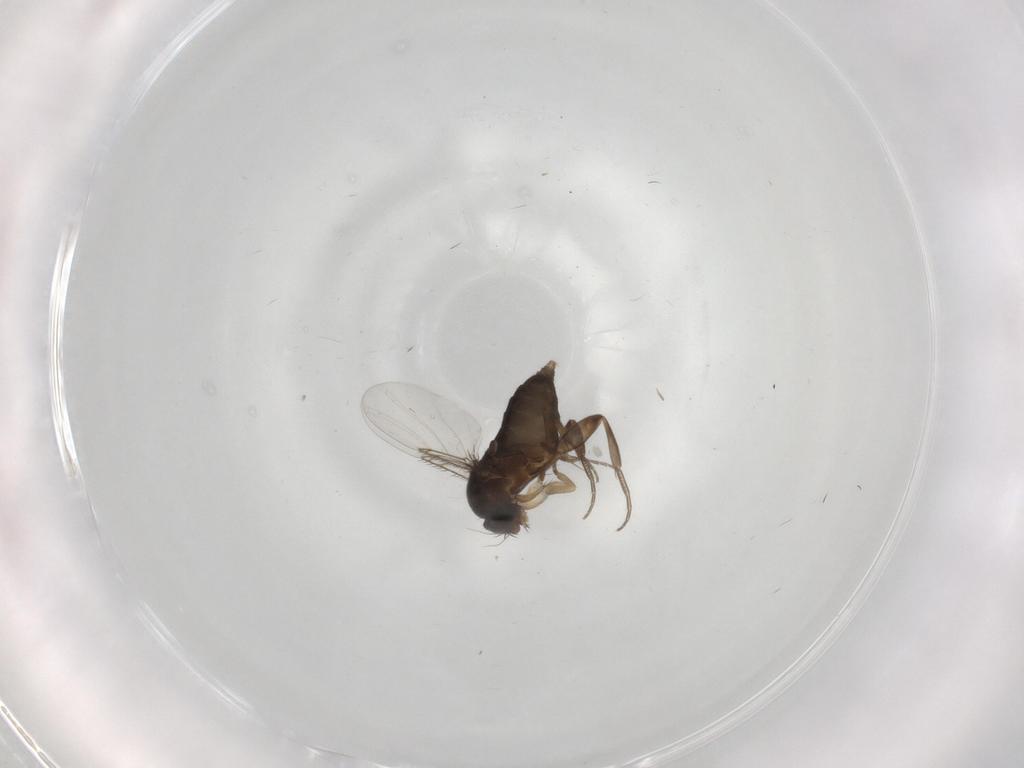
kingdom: Animalia
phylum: Arthropoda
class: Insecta
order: Diptera
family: Phoridae
